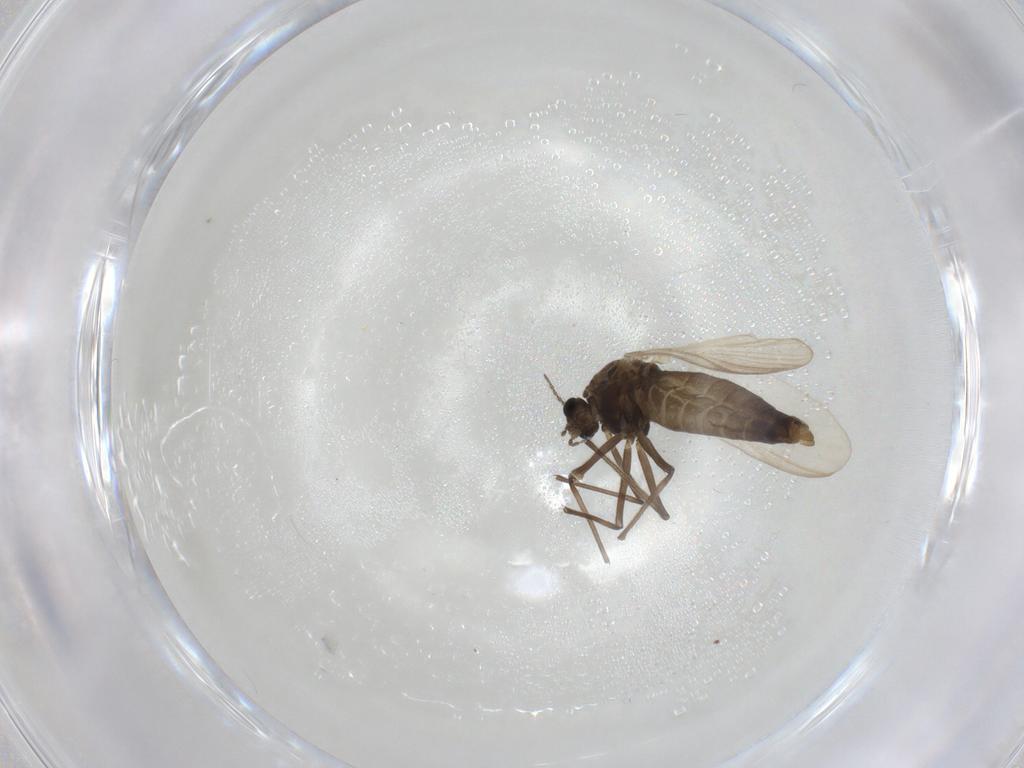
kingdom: Animalia
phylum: Arthropoda
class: Insecta
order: Diptera
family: Chironomidae
